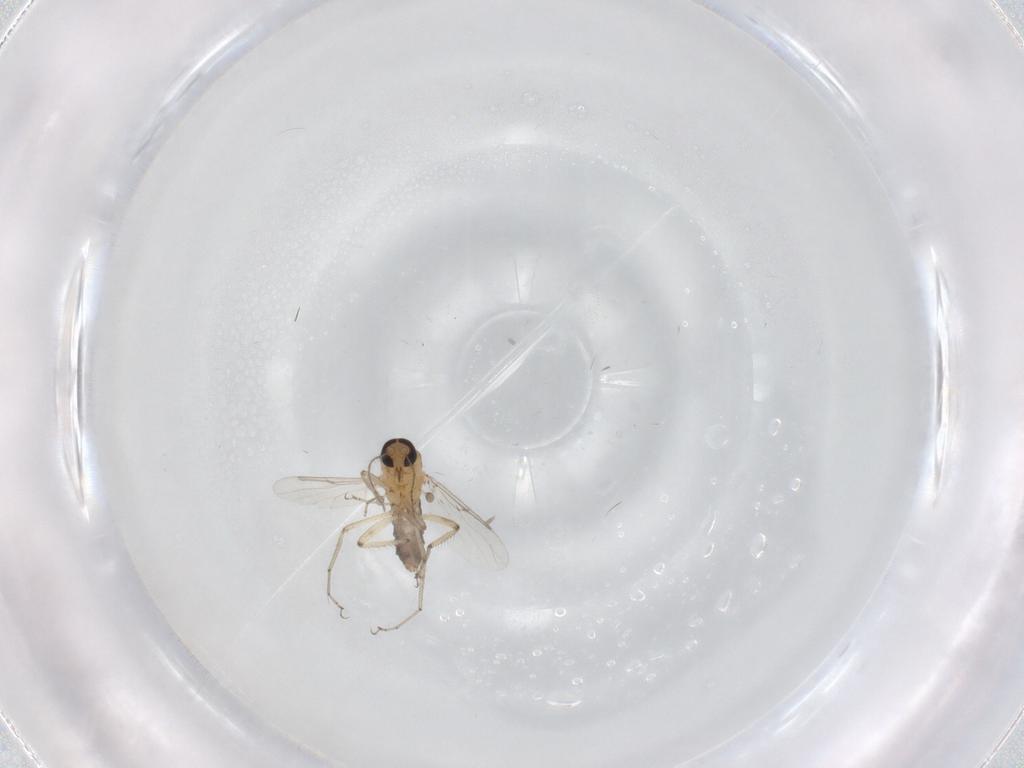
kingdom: Animalia
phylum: Arthropoda
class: Insecta
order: Diptera
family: Ceratopogonidae
